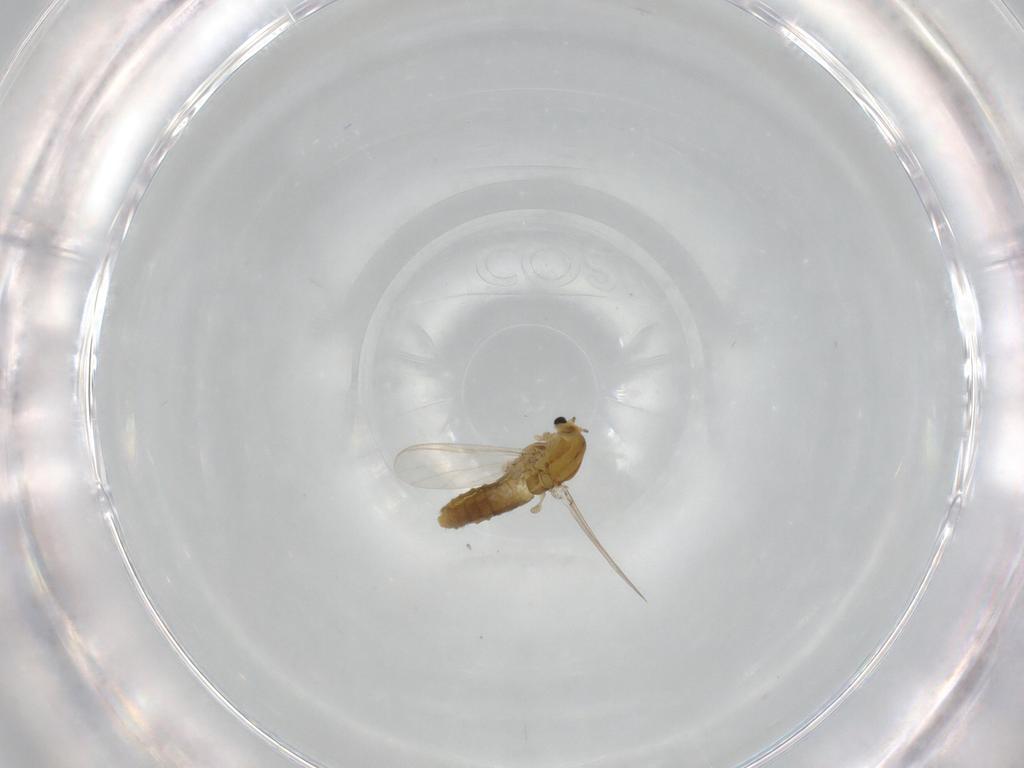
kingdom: Animalia
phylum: Arthropoda
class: Insecta
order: Diptera
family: Chironomidae
